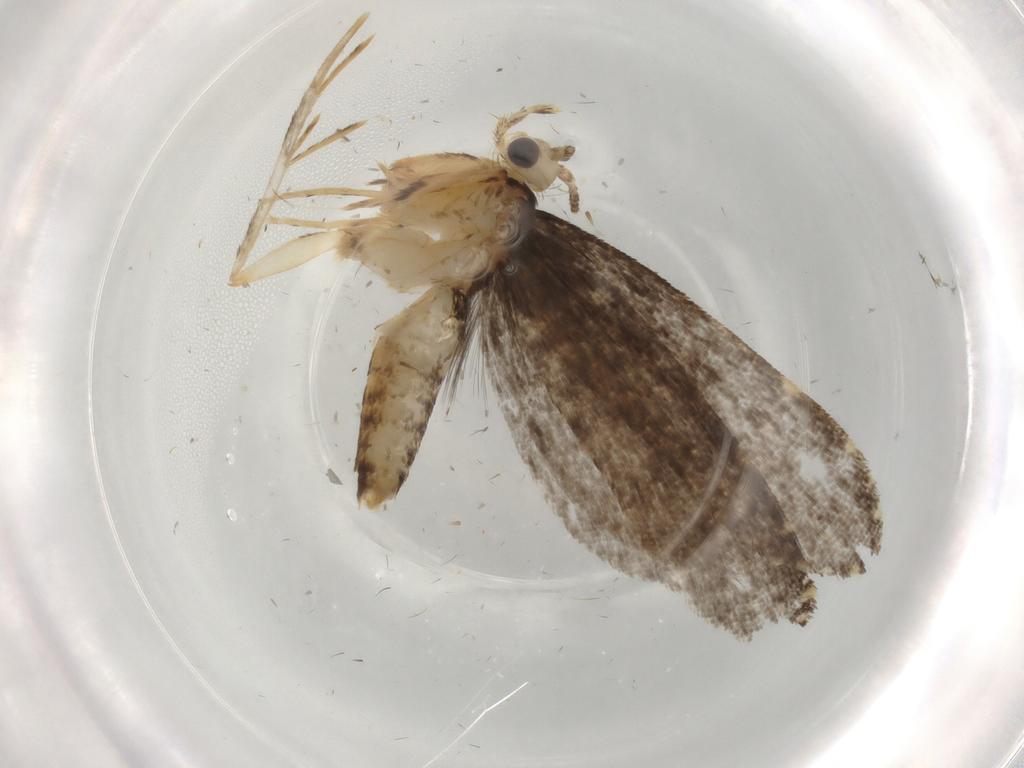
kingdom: Animalia
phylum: Arthropoda
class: Insecta
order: Lepidoptera
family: Tineidae
